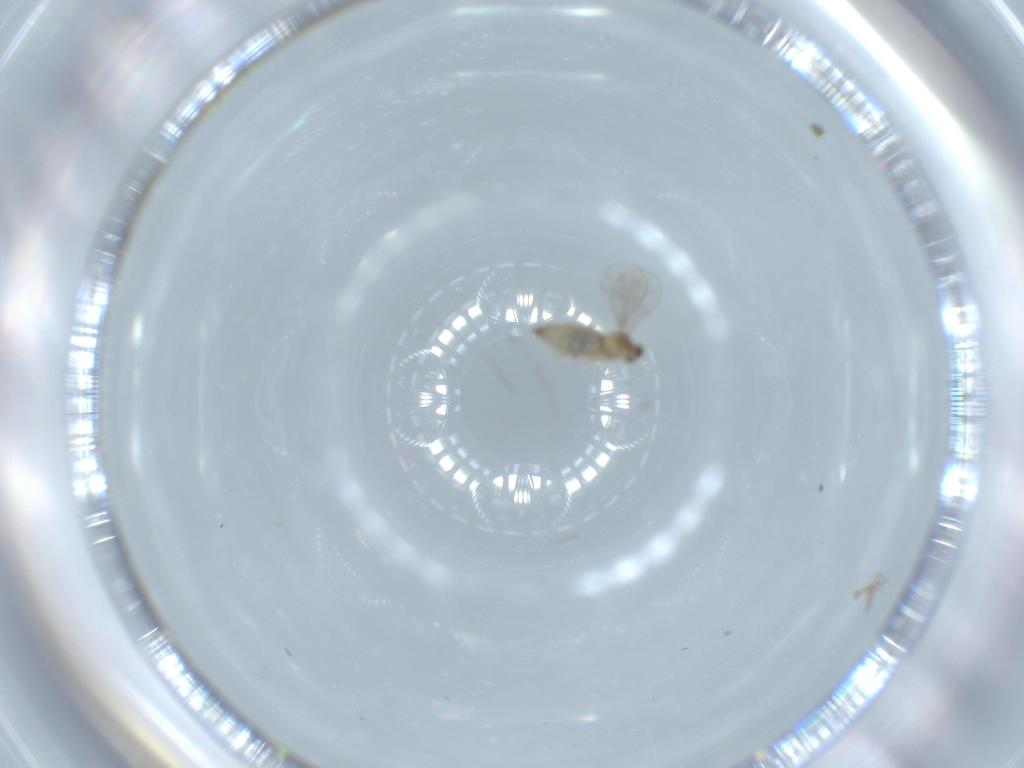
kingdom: Animalia
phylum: Arthropoda
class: Insecta
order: Diptera
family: Cecidomyiidae
